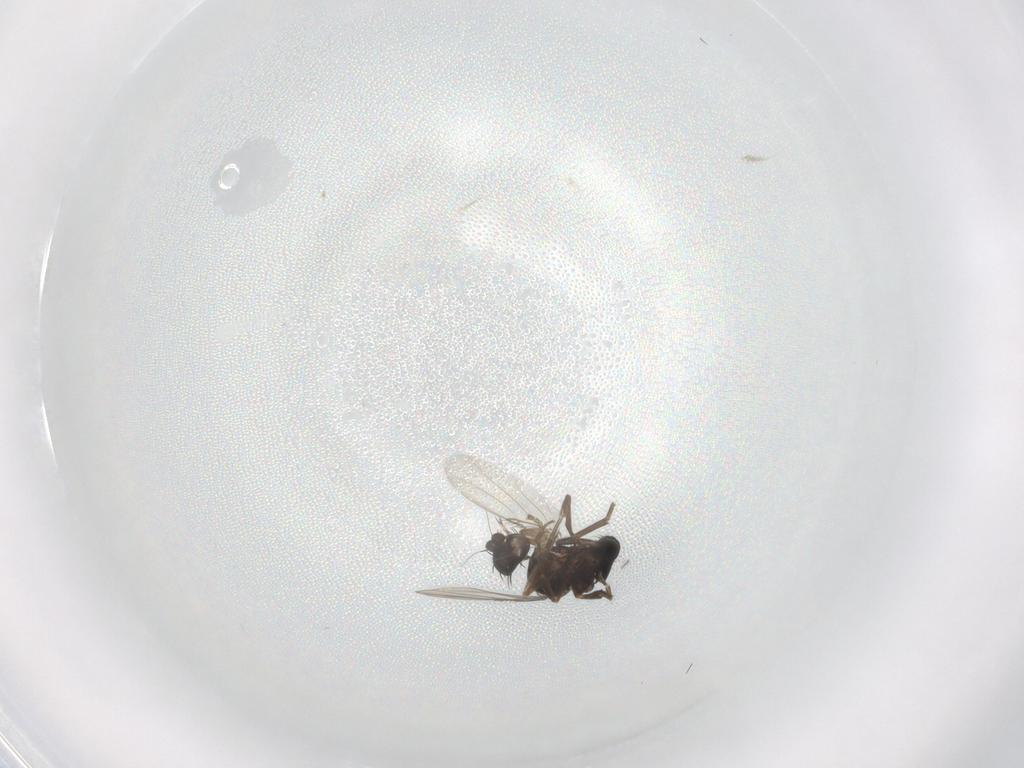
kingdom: Animalia
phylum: Arthropoda
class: Insecta
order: Diptera
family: Phoridae
